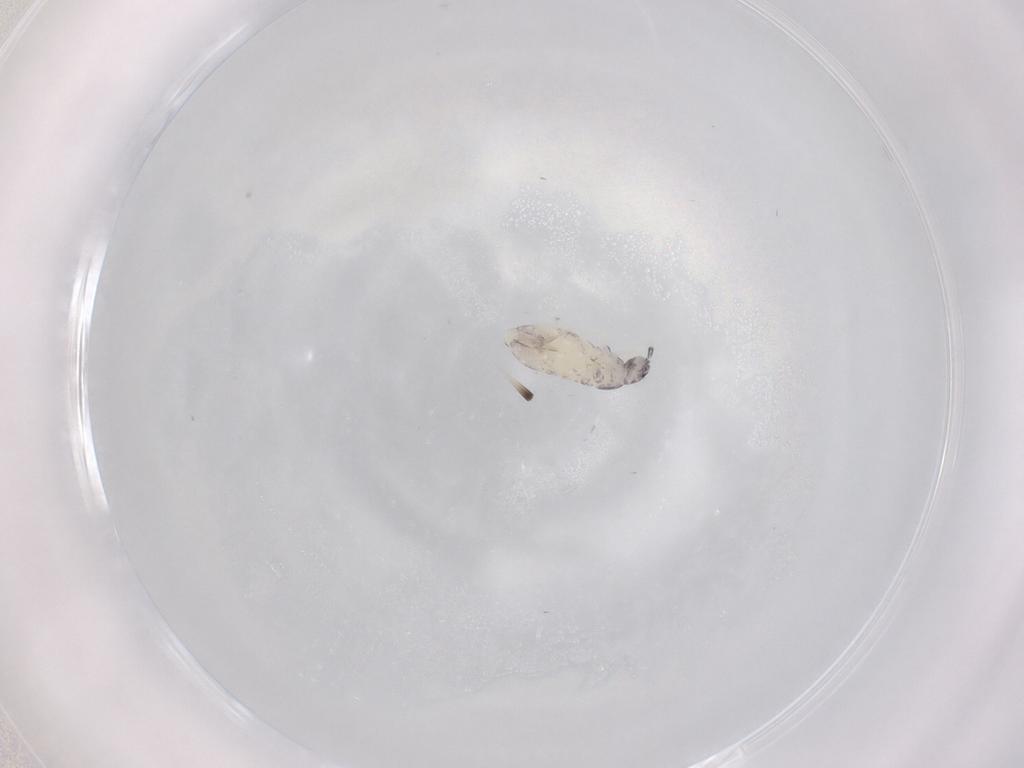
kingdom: Animalia
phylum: Arthropoda
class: Collembola
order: Entomobryomorpha
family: Entomobryidae
